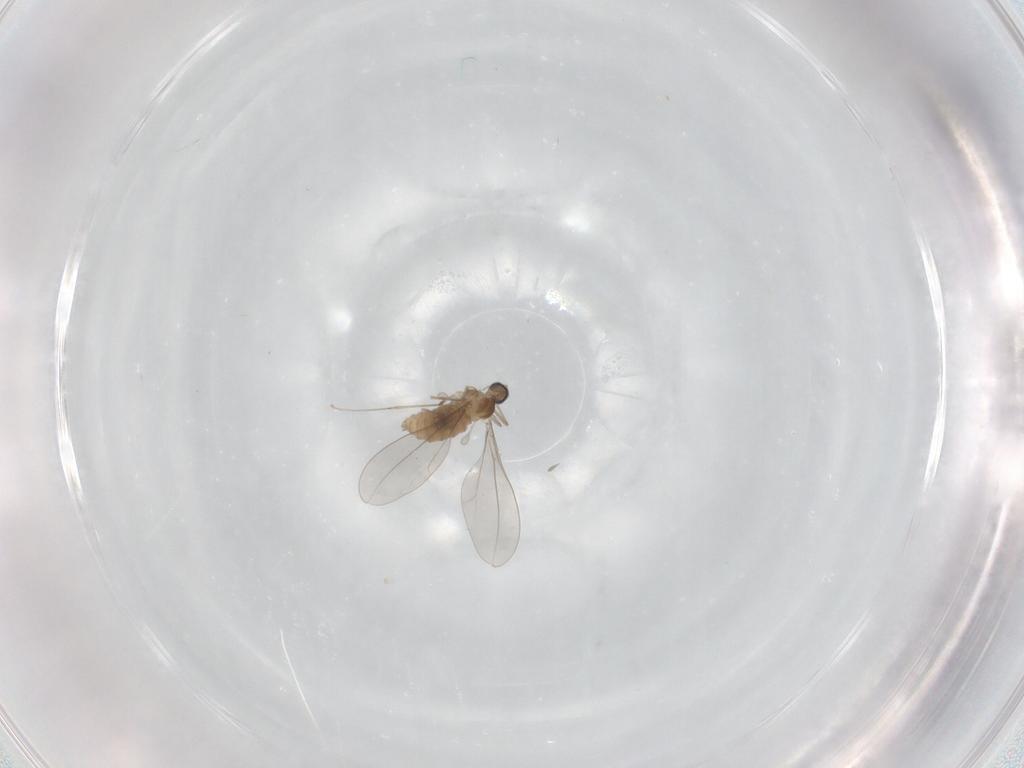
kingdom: Animalia
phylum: Arthropoda
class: Insecta
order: Diptera
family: Cecidomyiidae
